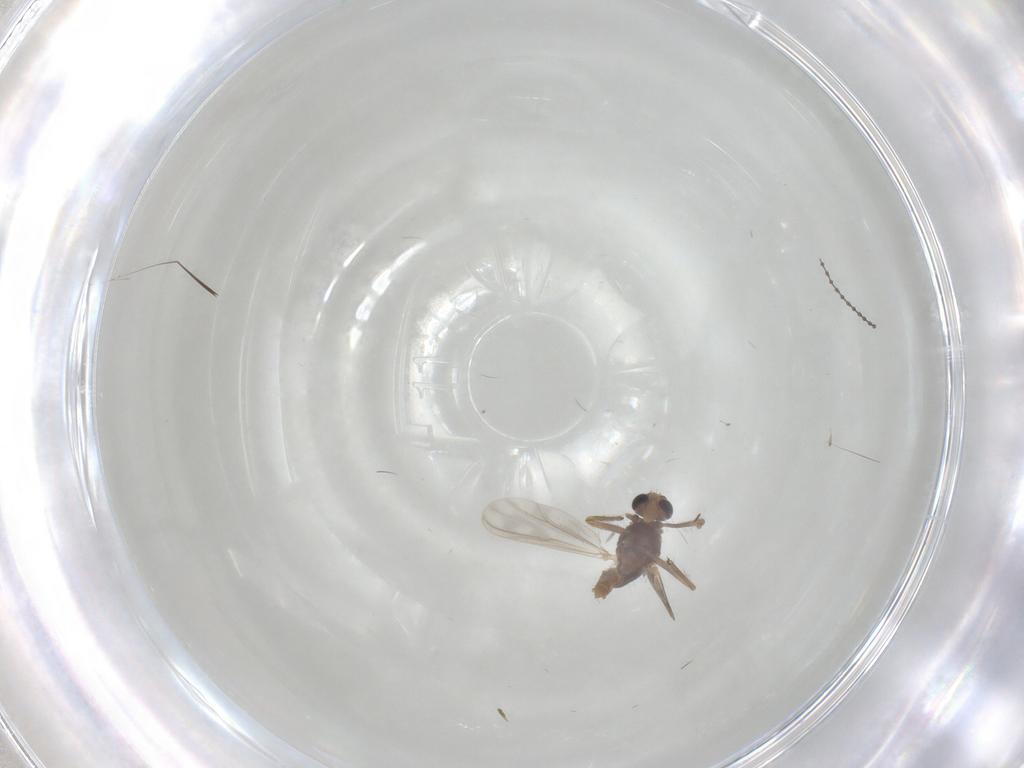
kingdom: Animalia
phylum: Arthropoda
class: Insecta
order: Diptera
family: Chironomidae
